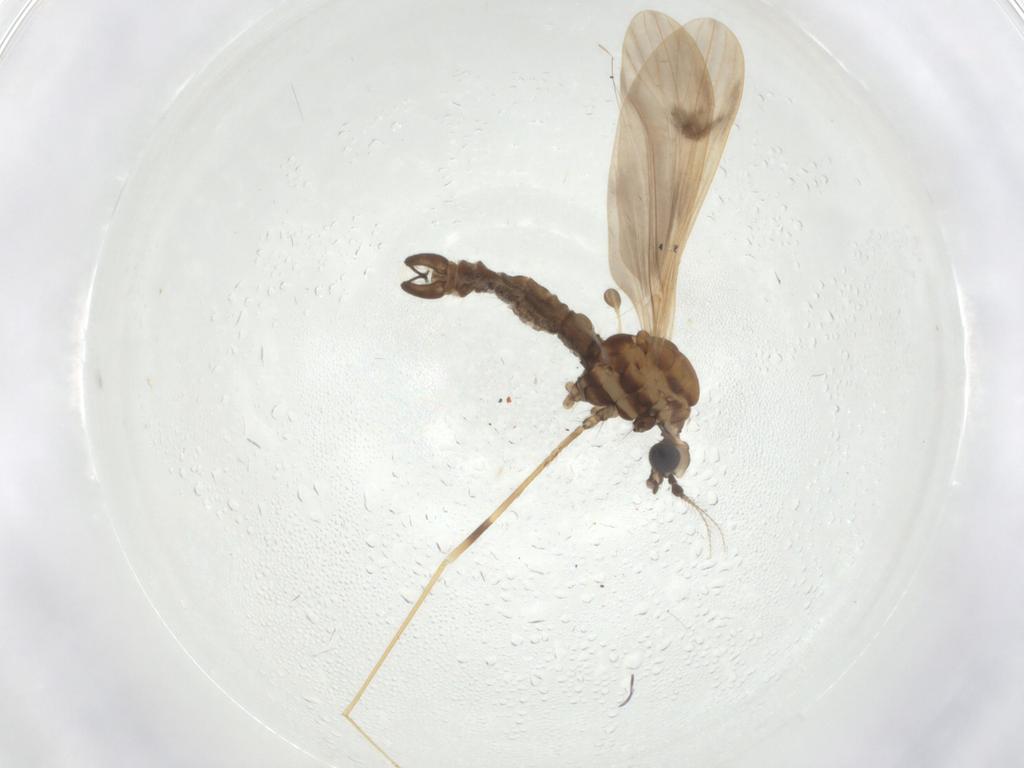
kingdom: Animalia
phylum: Arthropoda
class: Insecta
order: Diptera
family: Limoniidae
